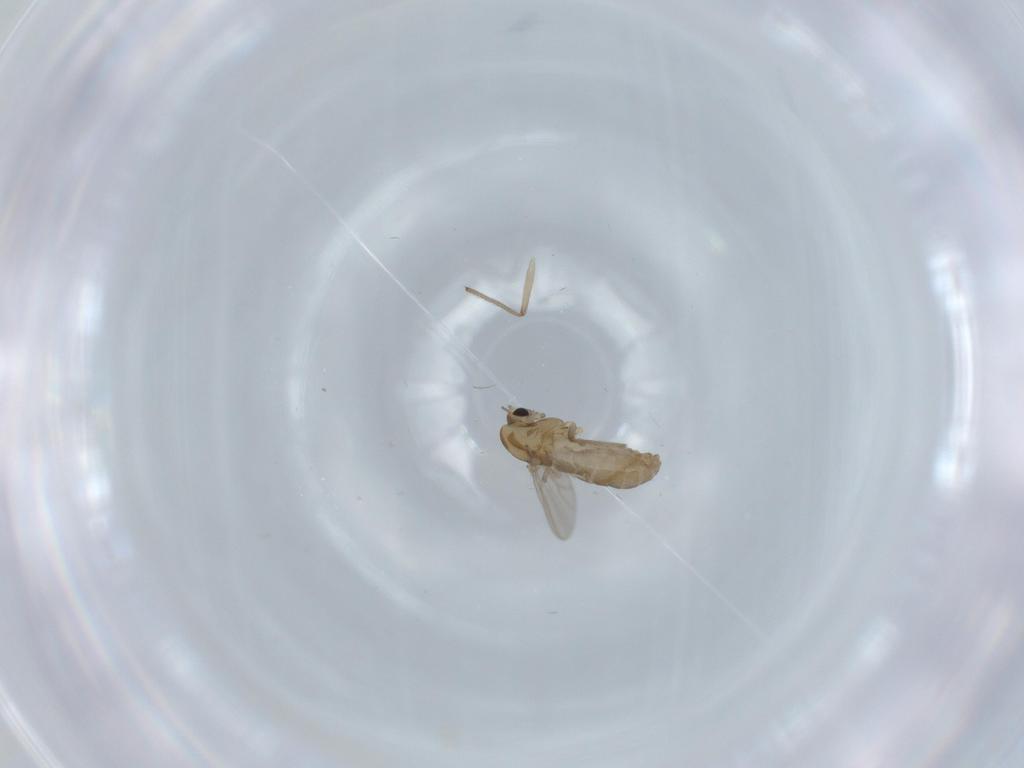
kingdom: Animalia
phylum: Arthropoda
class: Insecta
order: Diptera
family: Chironomidae
